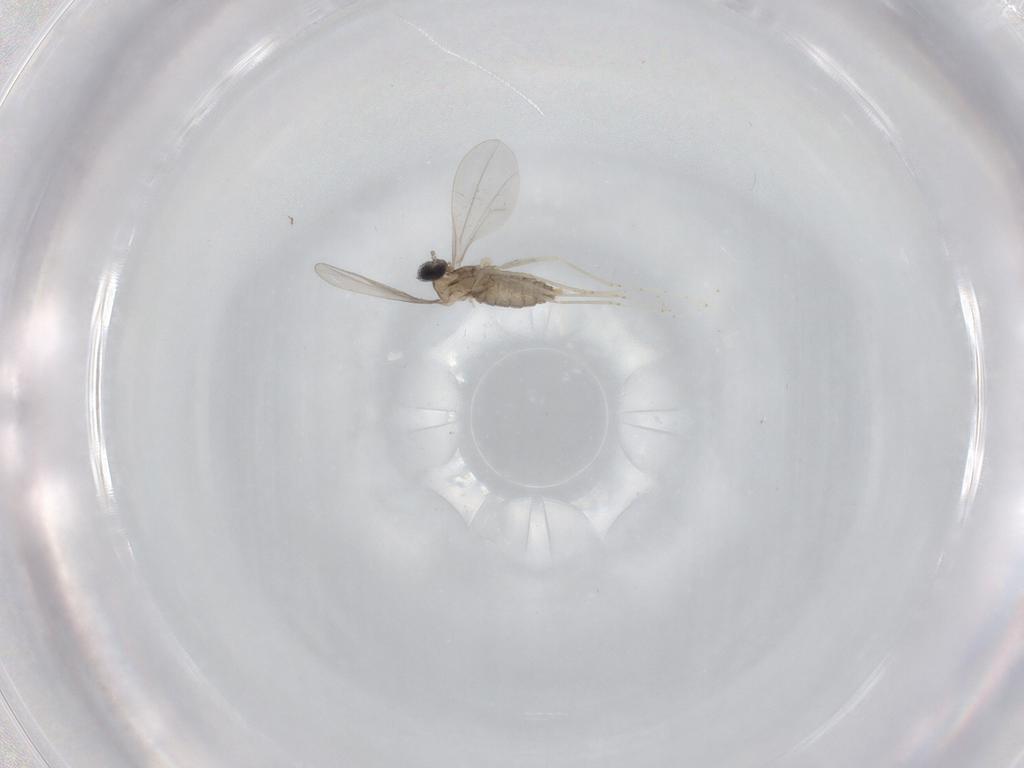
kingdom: Animalia
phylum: Arthropoda
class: Insecta
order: Diptera
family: Cecidomyiidae
